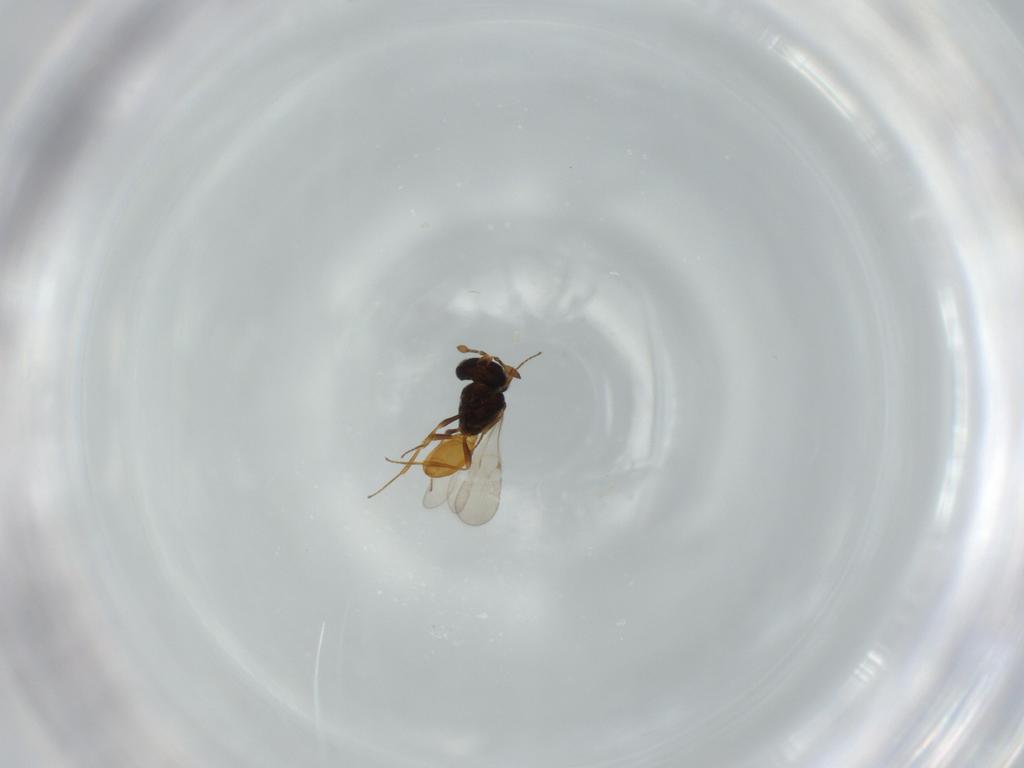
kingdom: Animalia
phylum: Arthropoda
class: Insecta
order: Hymenoptera
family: Scelionidae
